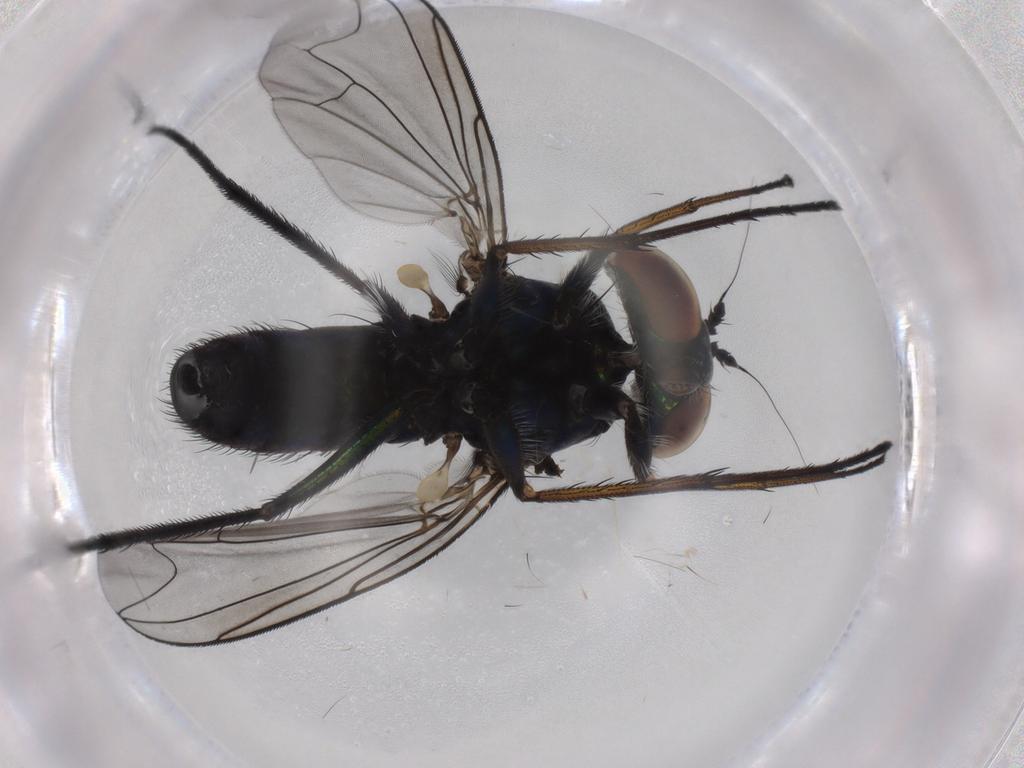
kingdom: Animalia
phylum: Arthropoda
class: Insecta
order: Diptera
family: Dolichopodidae
